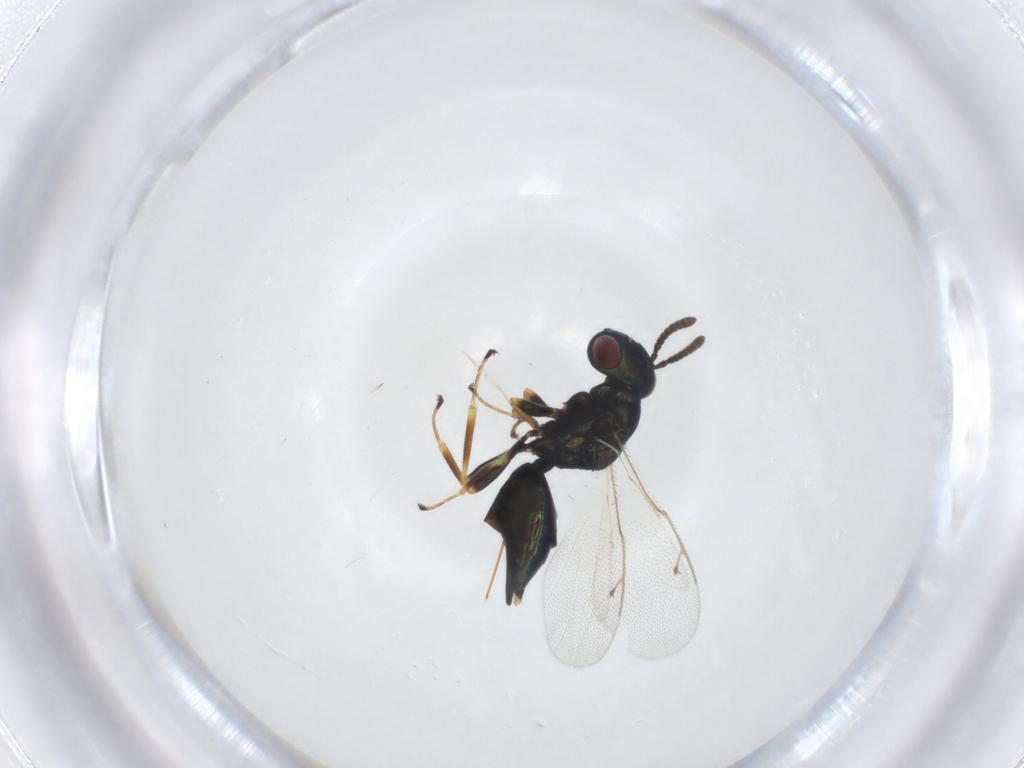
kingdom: Animalia
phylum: Arthropoda
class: Insecta
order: Hymenoptera
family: Pteromalidae
